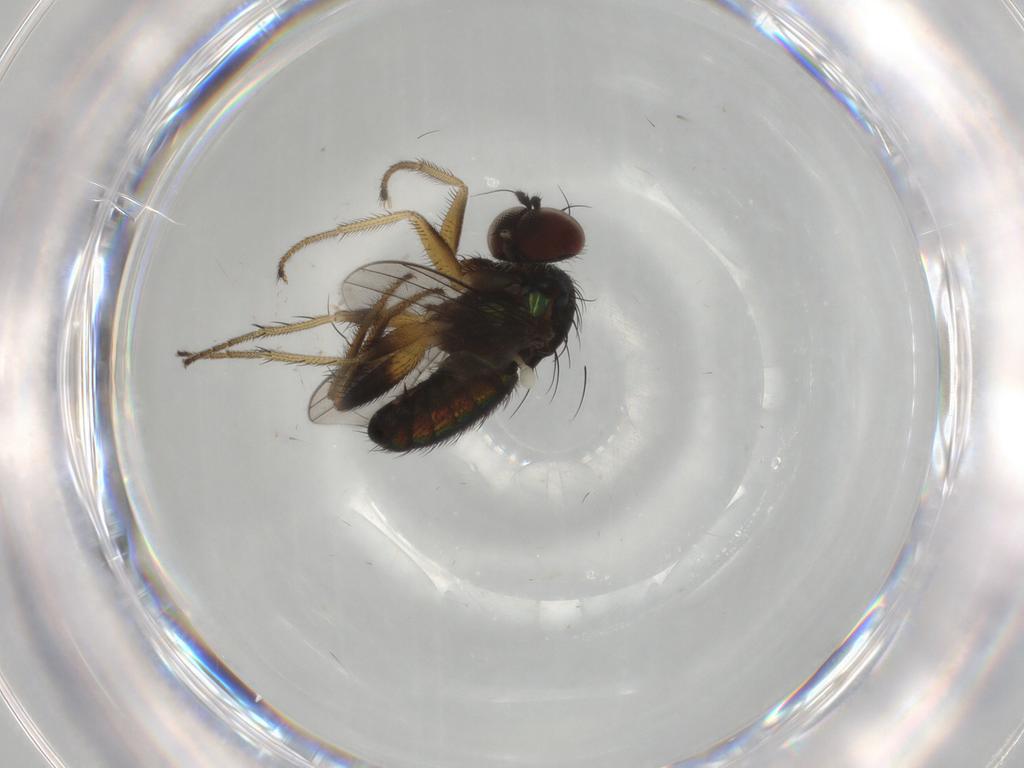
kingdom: Animalia
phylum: Arthropoda
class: Insecta
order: Diptera
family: Dolichopodidae
